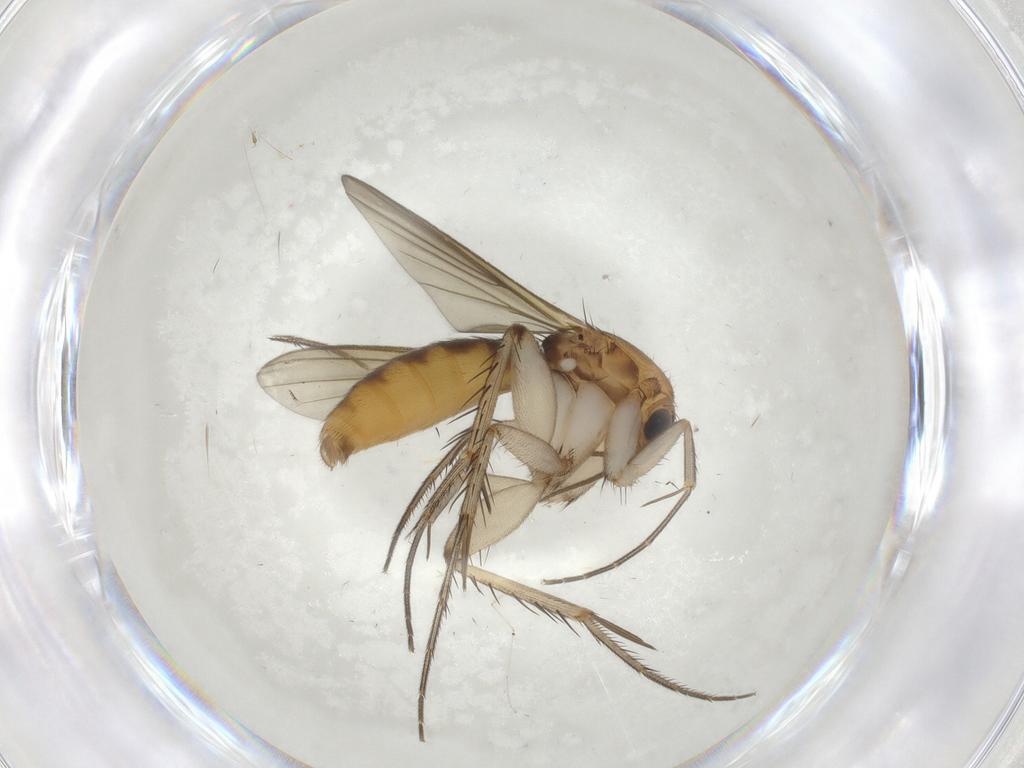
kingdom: Animalia
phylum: Arthropoda
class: Insecta
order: Diptera
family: Mycetophilidae
